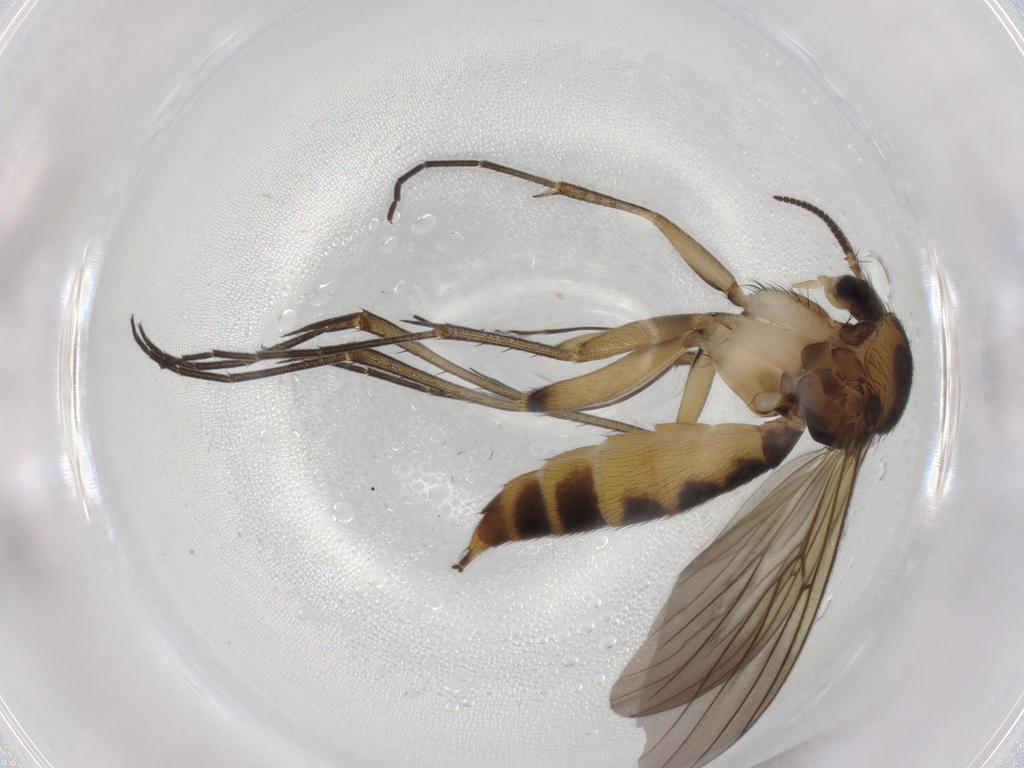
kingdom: Animalia
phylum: Arthropoda
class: Insecta
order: Diptera
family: Mycetophilidae
